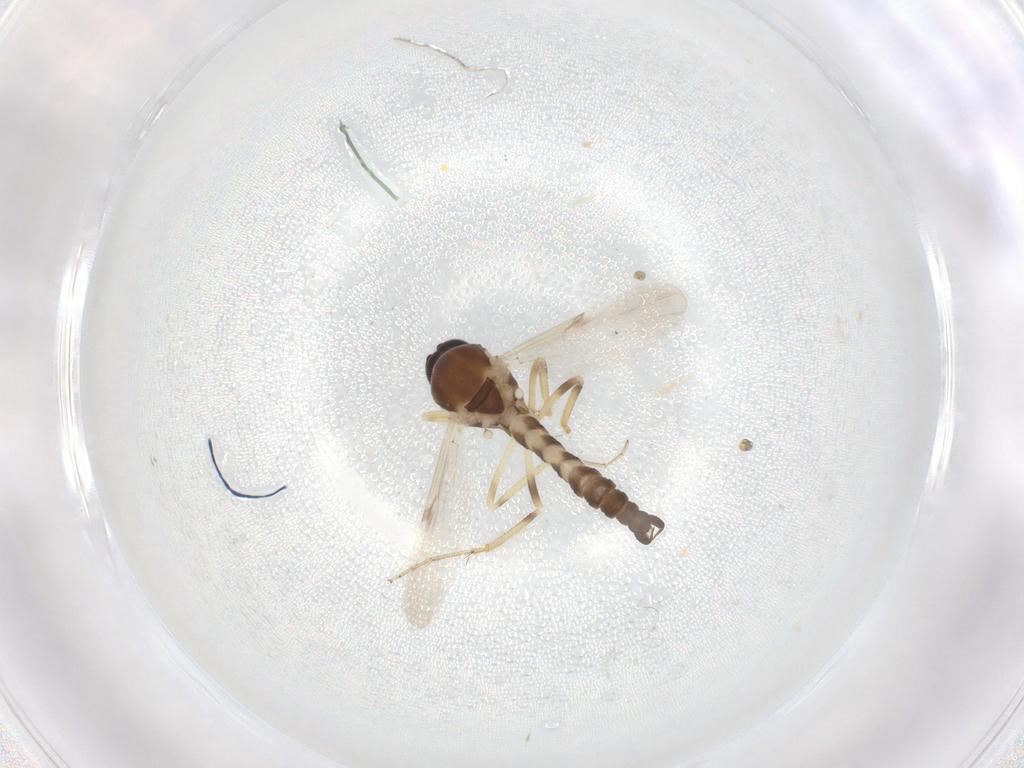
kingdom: Animalia
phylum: Arthropoda
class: Insecta
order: Diptera
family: Ceratopogonidae
